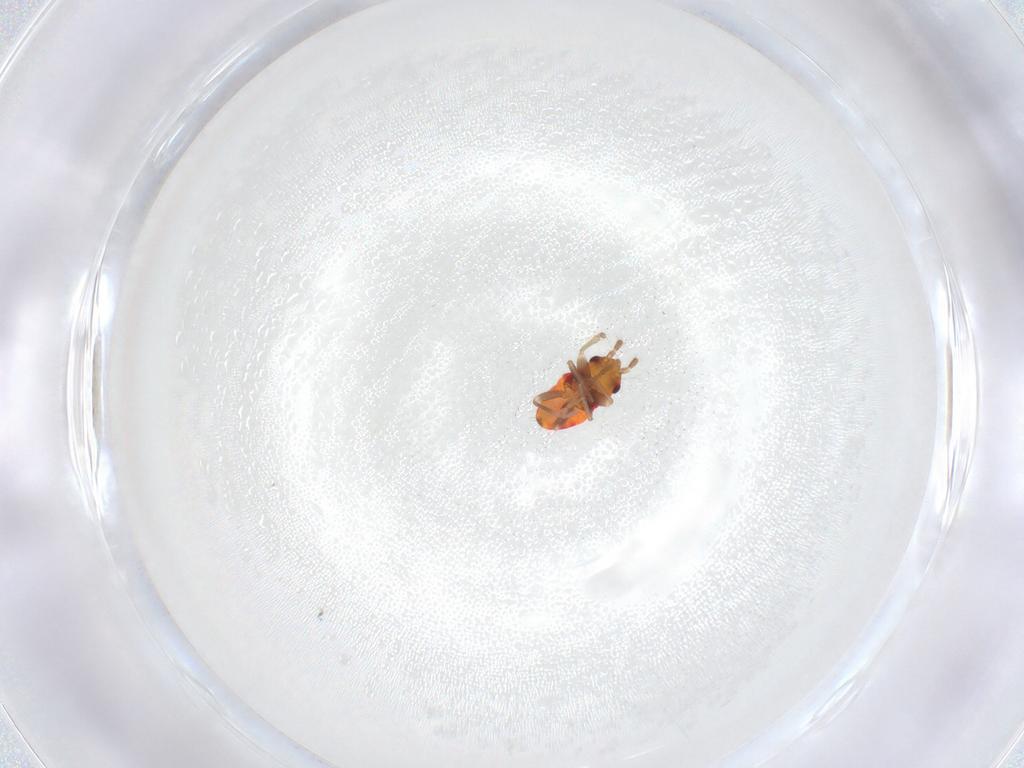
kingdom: Animalia
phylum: Arthropoda
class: Insecta
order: Hemiptera
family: Rhyparochromidae
